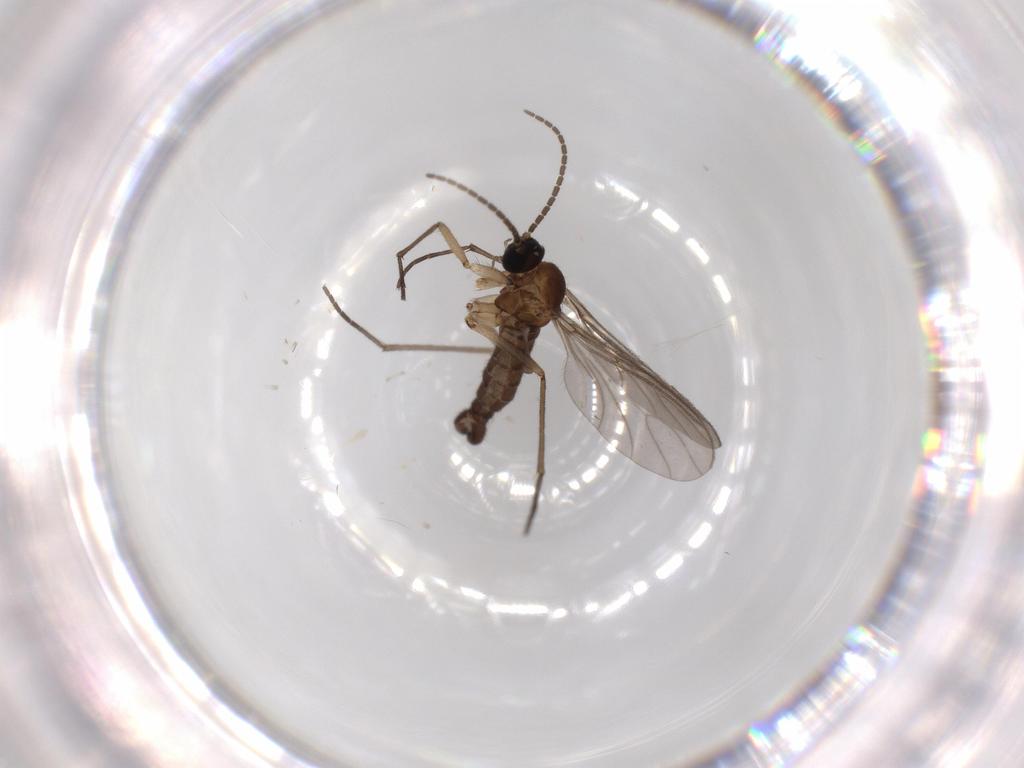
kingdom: Animalia
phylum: Arthropoda
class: Insecta
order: Diptera
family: Sciaridae
